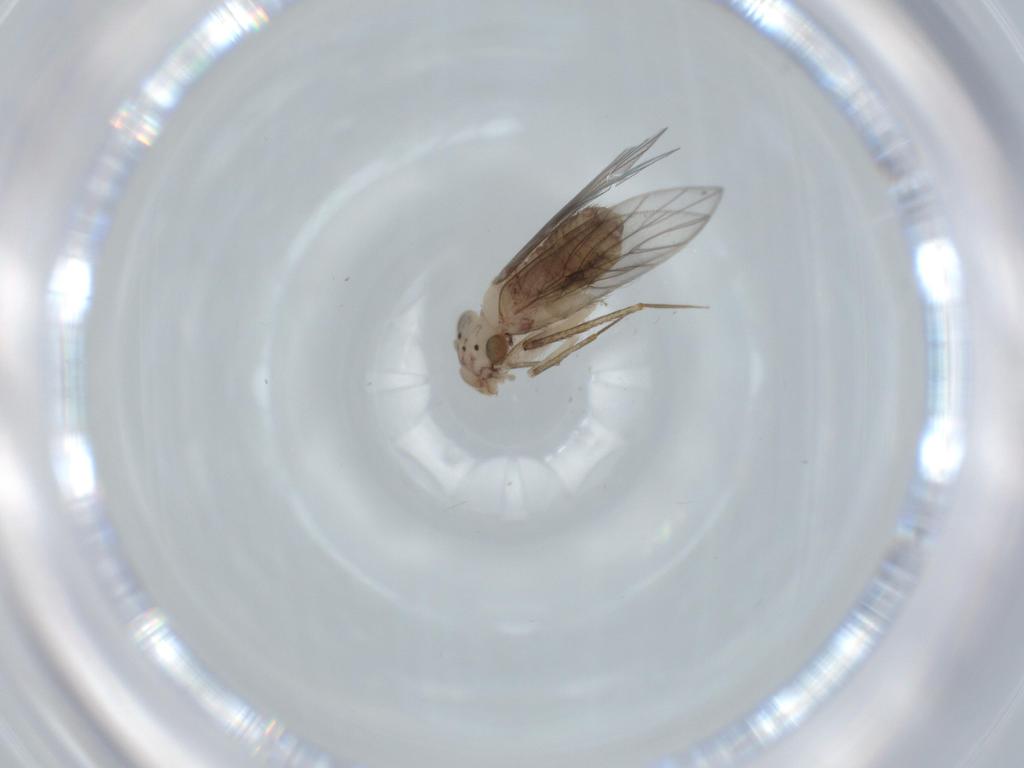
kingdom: Animalia
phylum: Arthropoda
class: Insecta
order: Psocodea
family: Lepidopsocidae
